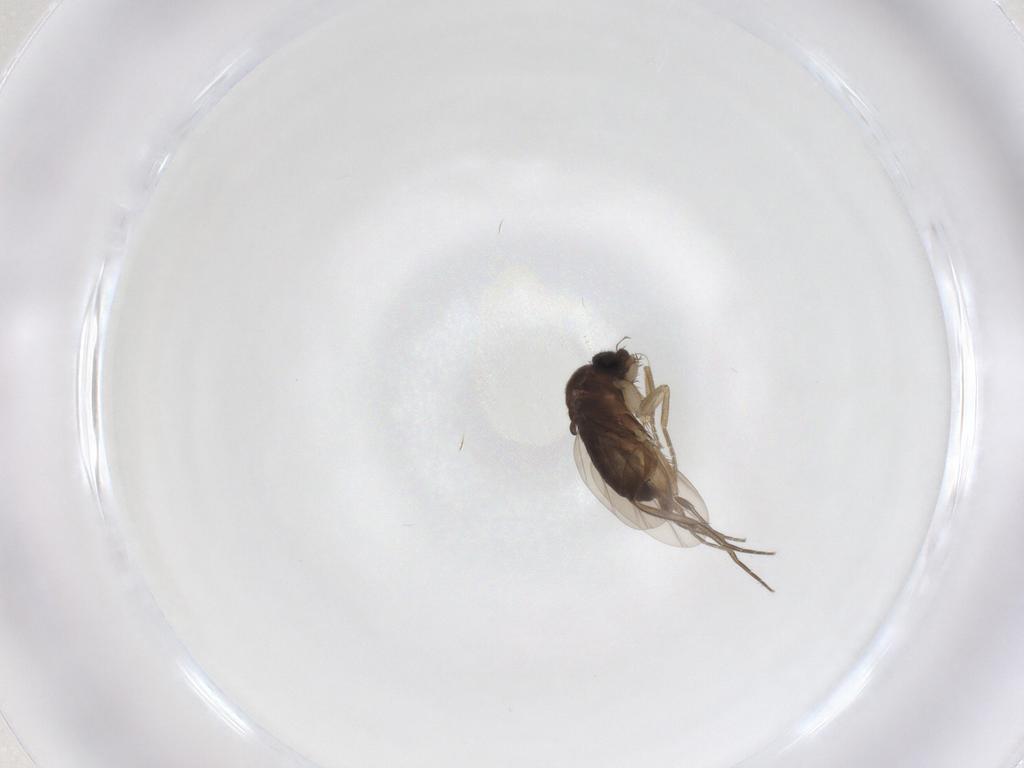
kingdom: Animalia
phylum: Arthropoda
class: Insecta
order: Diptera
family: Phoridae
